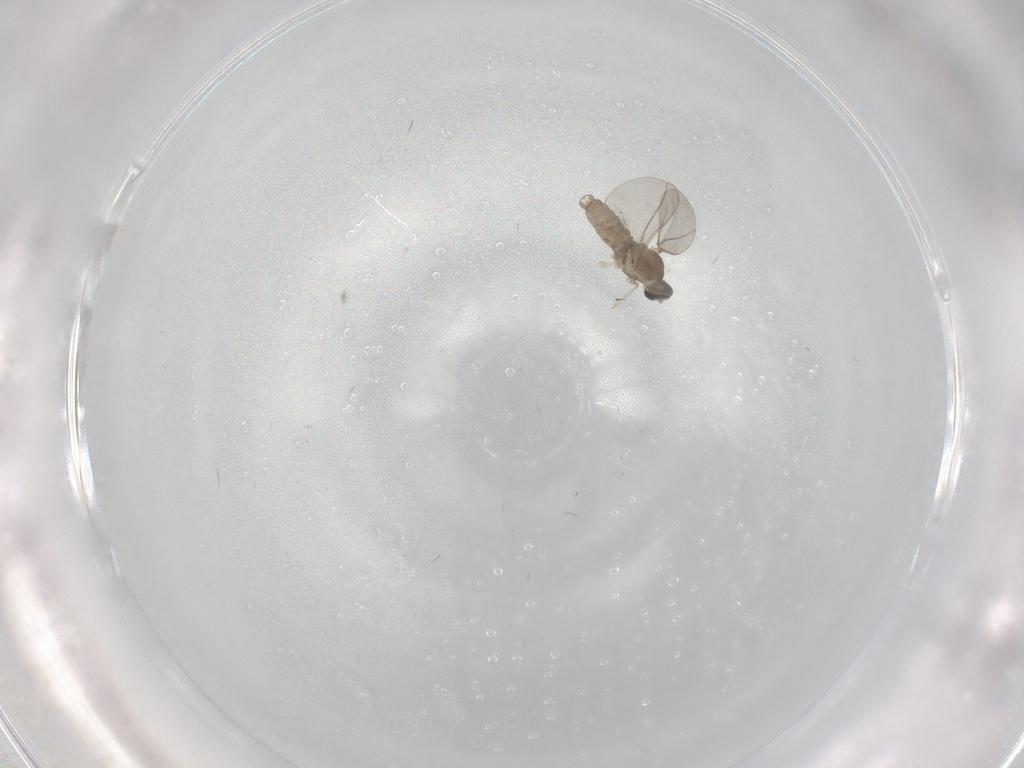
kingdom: Animalia
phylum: Arthropoda
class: Insecta
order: Diptera
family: Cecidomyiidae
